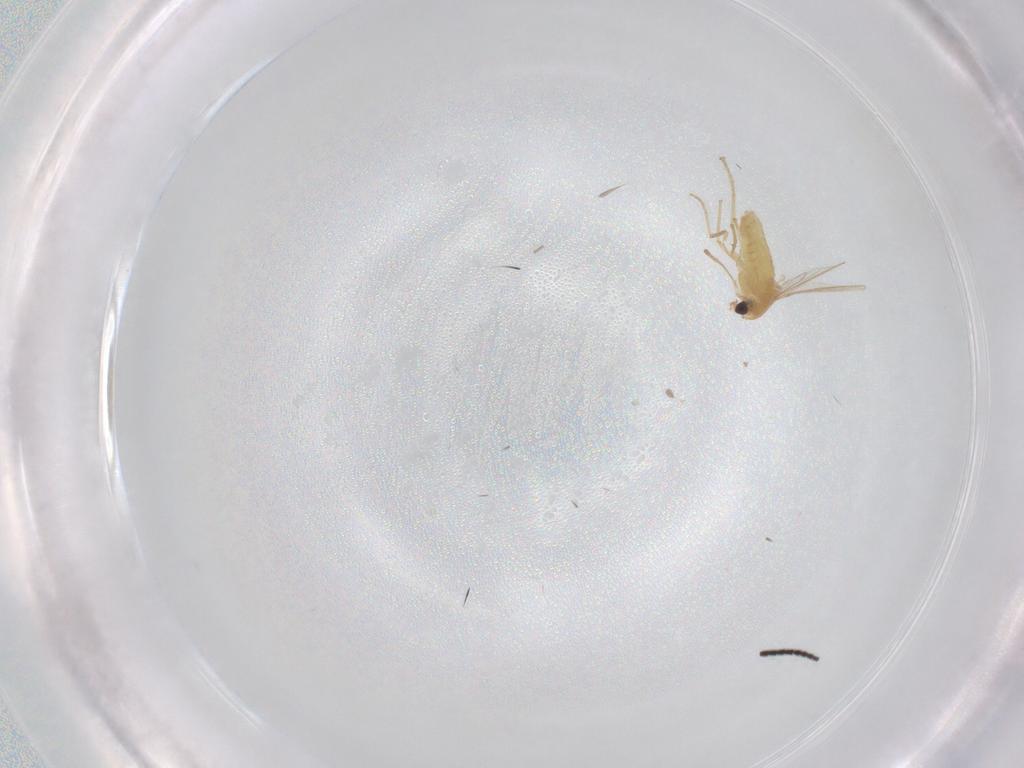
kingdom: Animalia
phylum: Arthropoda
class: Insecta
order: Diptera
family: Chironomidae
